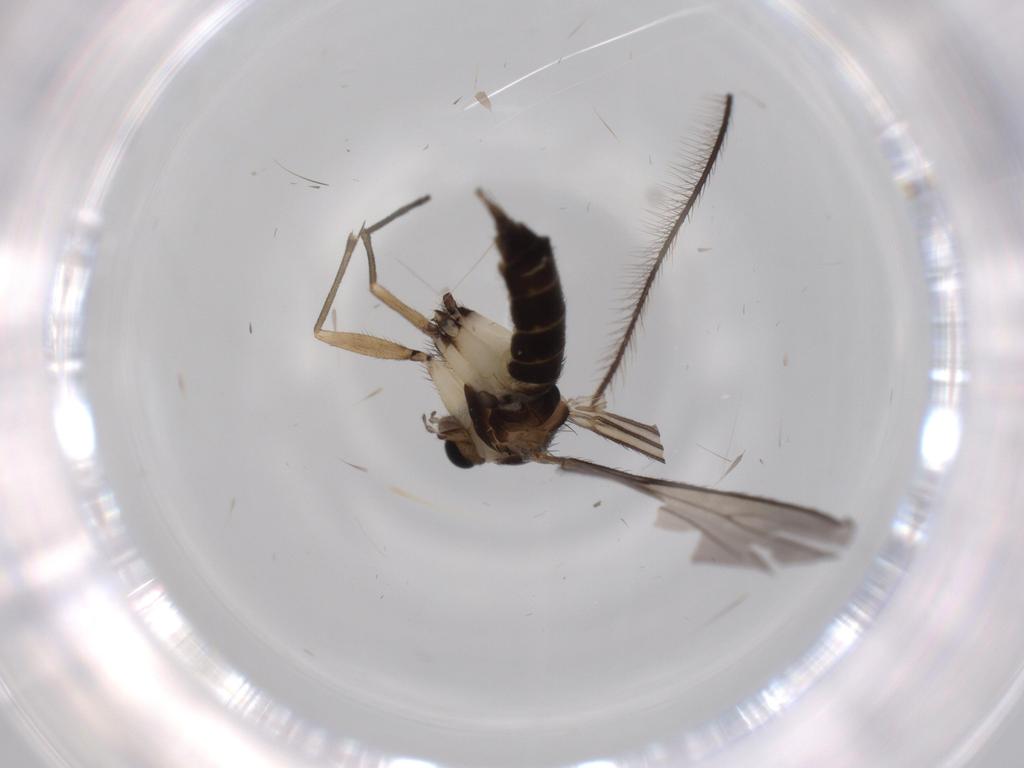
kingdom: Animalia
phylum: Arthropoda
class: Insecta
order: Diptera
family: Sciaridae
